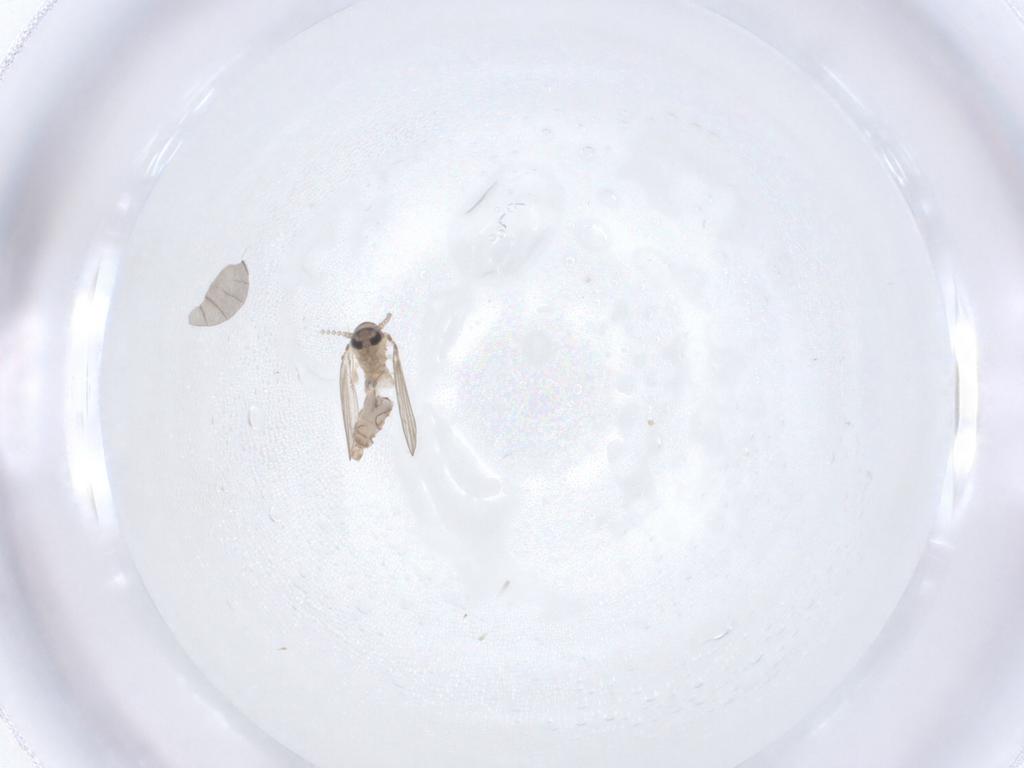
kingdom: Animalia
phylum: Arthropoda
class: Insecta
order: Diptera
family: Psychodidae
